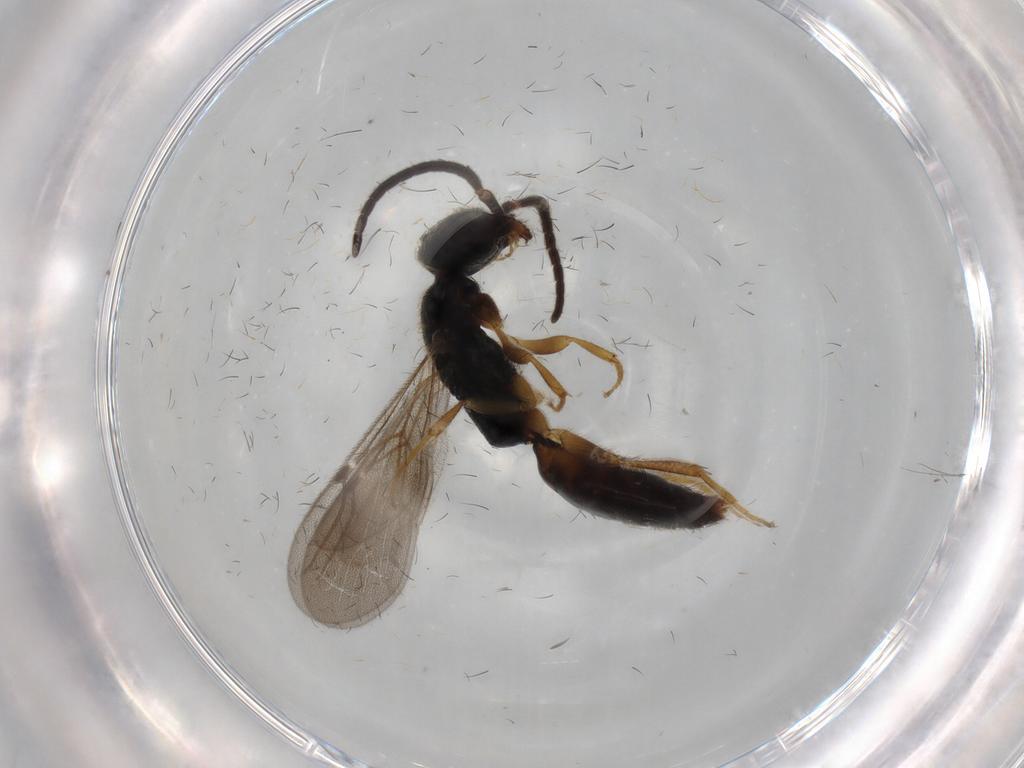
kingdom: Animalia
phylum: Arthropoda
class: Insecta
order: Hymenoptera
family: Bethylidae
